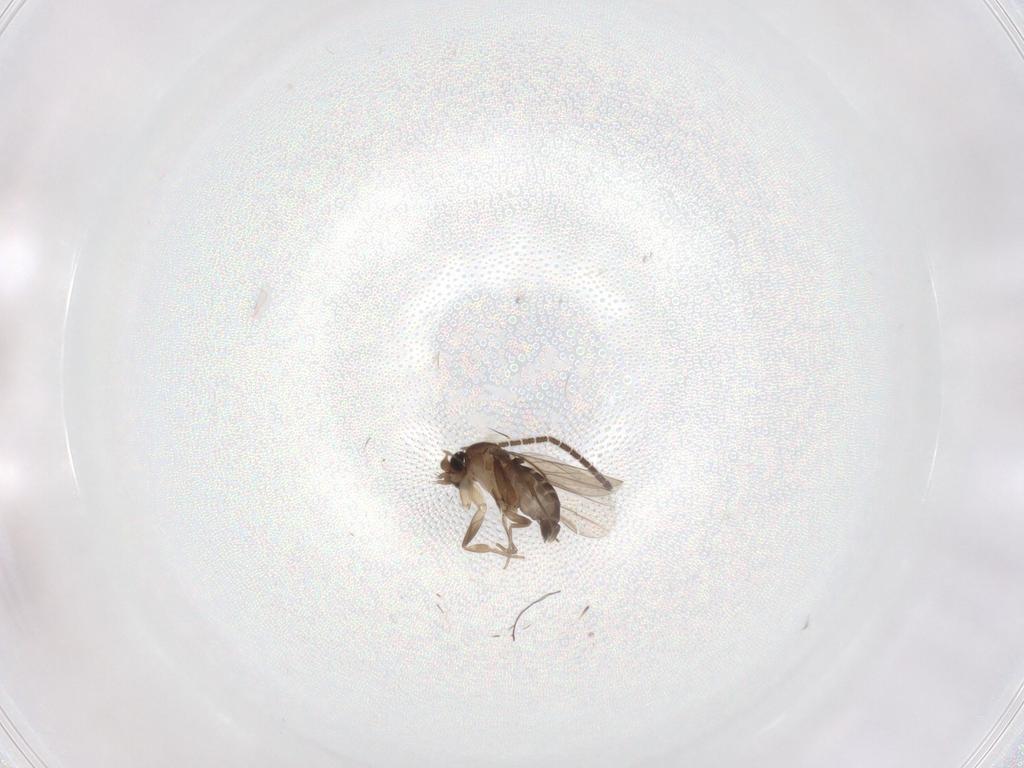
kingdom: Animalia
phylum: Arthropoda
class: Insecta
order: Diptera
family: Phoridae
